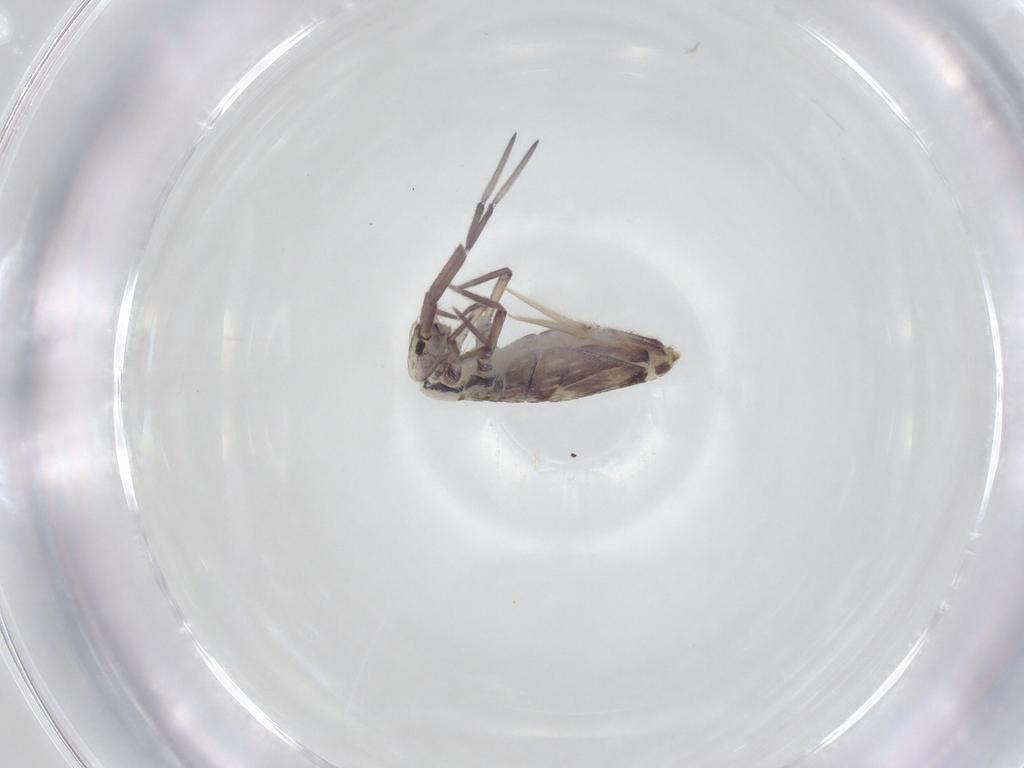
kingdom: Animalia
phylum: Arthropoda
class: Collembola
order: Entomobryomorpha
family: Entomobryidae
